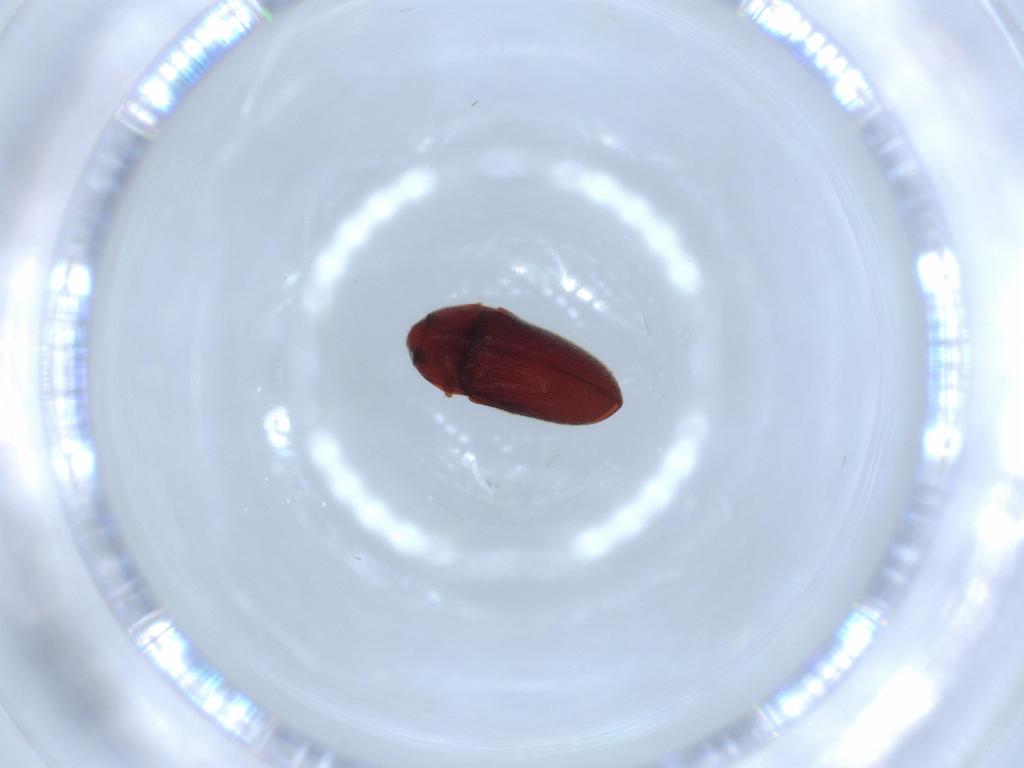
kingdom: Animalia
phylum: Arthropoda
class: Insecta
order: Coleoptera
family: Throscidae
